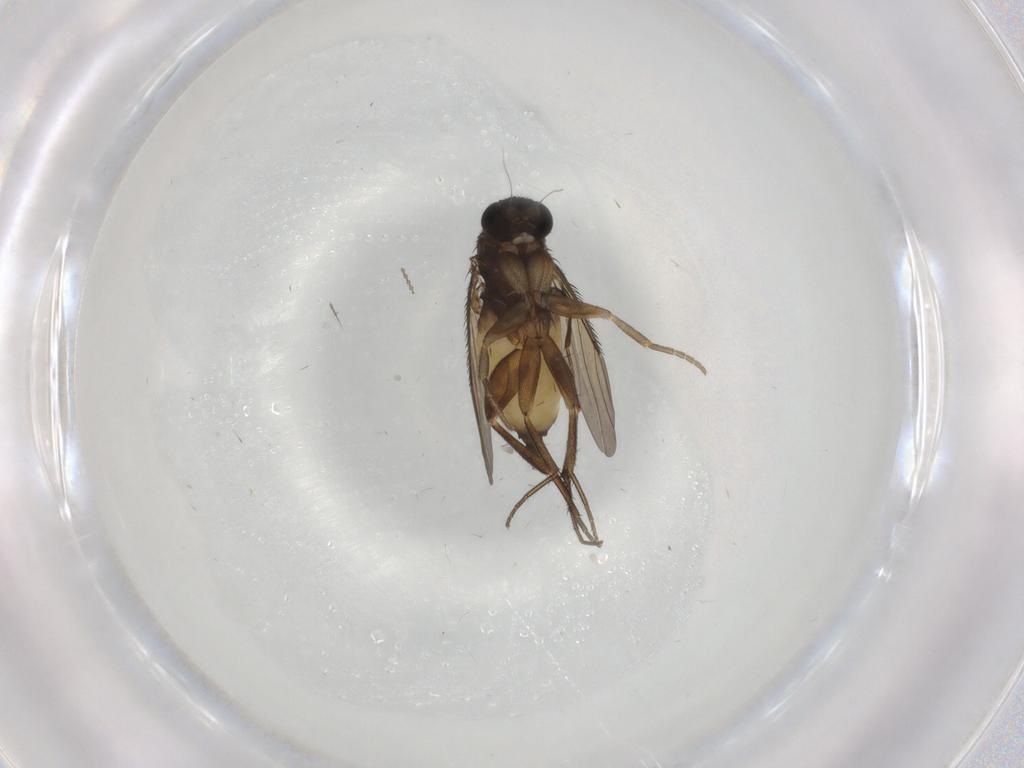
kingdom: Animalia
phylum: Arthropoda
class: Insecta
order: Diptera
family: Phoridae
